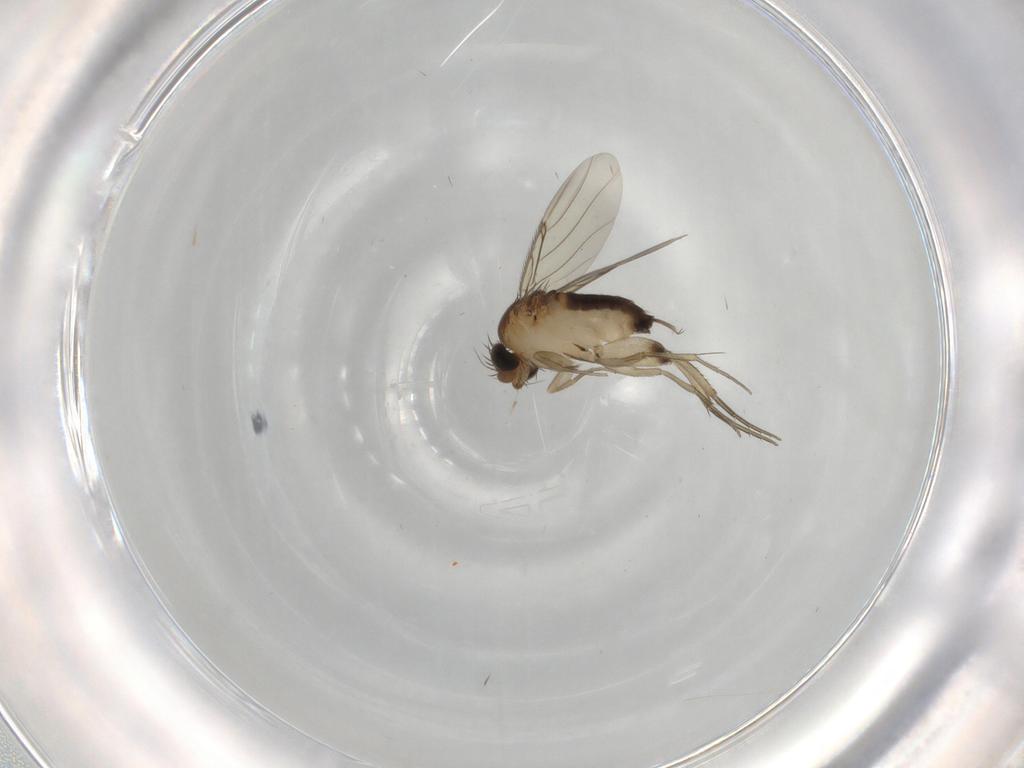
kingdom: Animalia
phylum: Arthropoda
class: Insecta
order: Diptera
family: Phoridae
